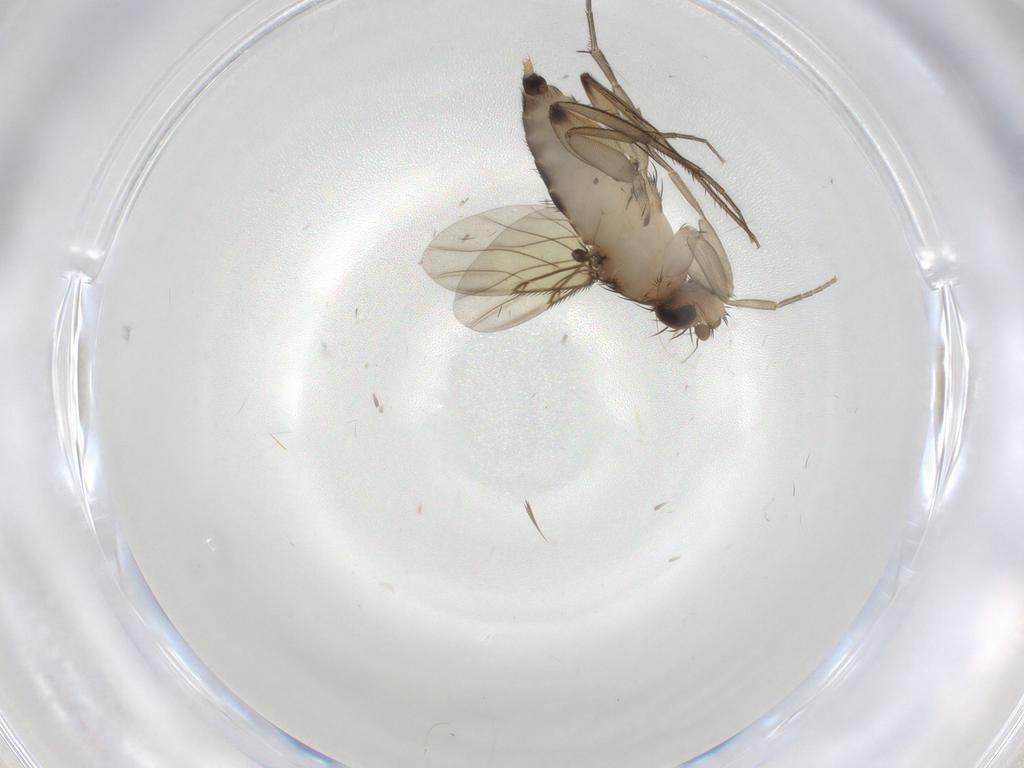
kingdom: Animalia
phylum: Arthropoda
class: Insecta
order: Diptera
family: Phoridae
